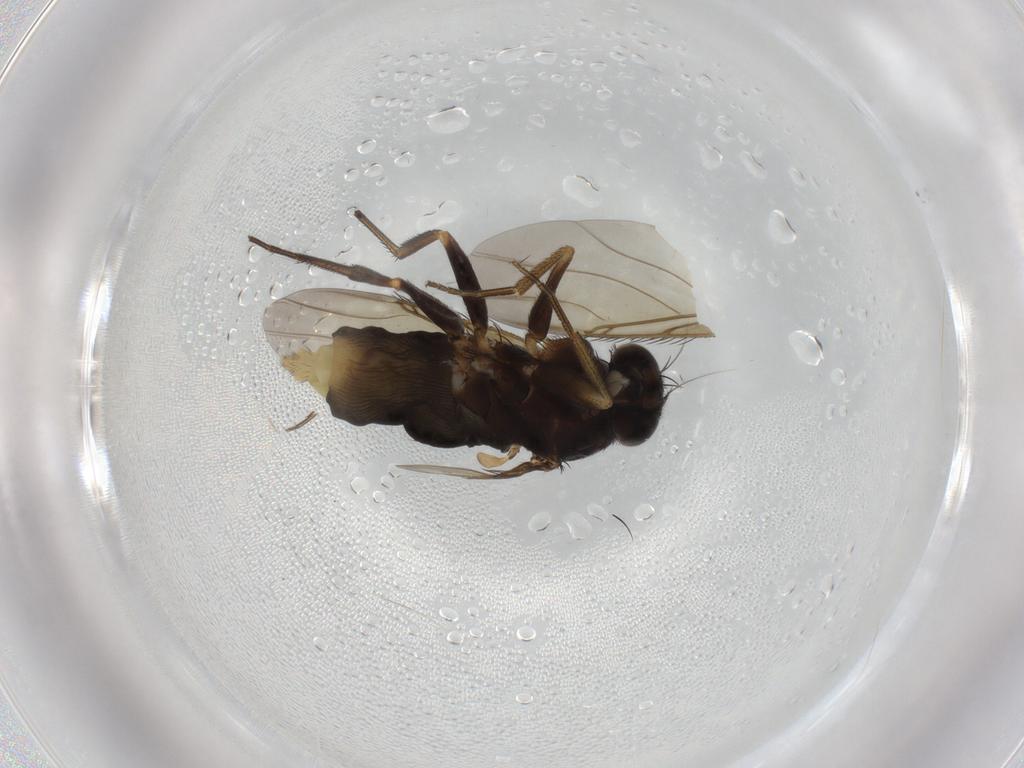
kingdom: Animalia
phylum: Arthropoda
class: Insecta
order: Diptera
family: Phoridae
